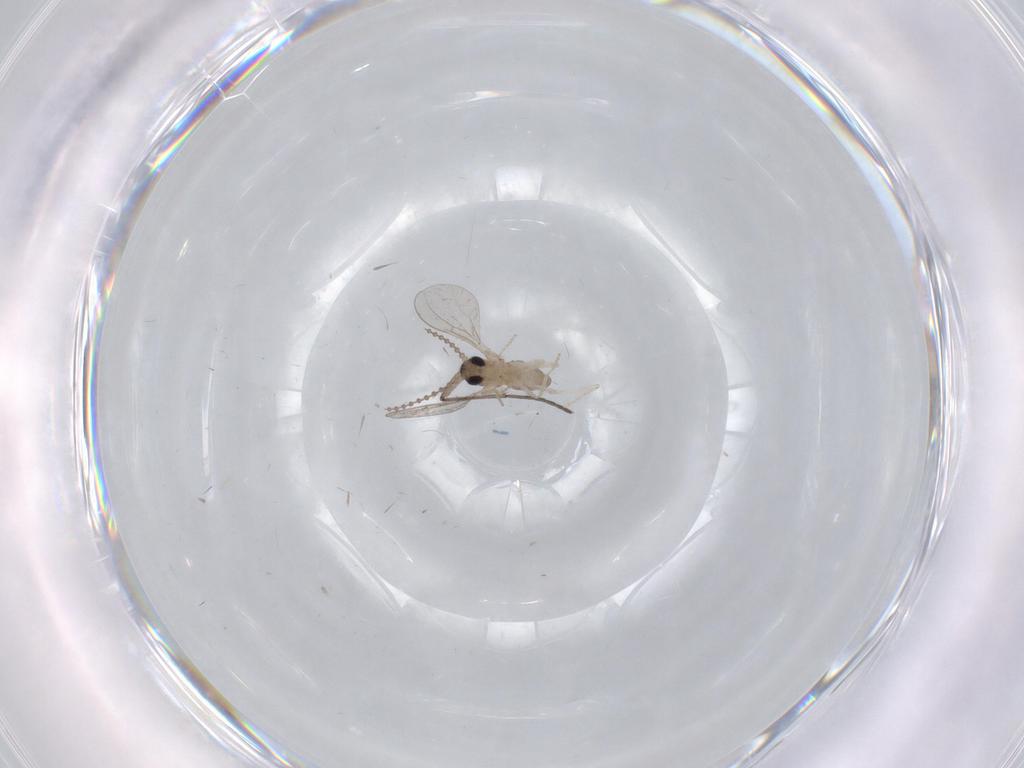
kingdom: Animalia
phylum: Arthropoda
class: Insecta
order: Diptera
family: Cecidomyiidae
